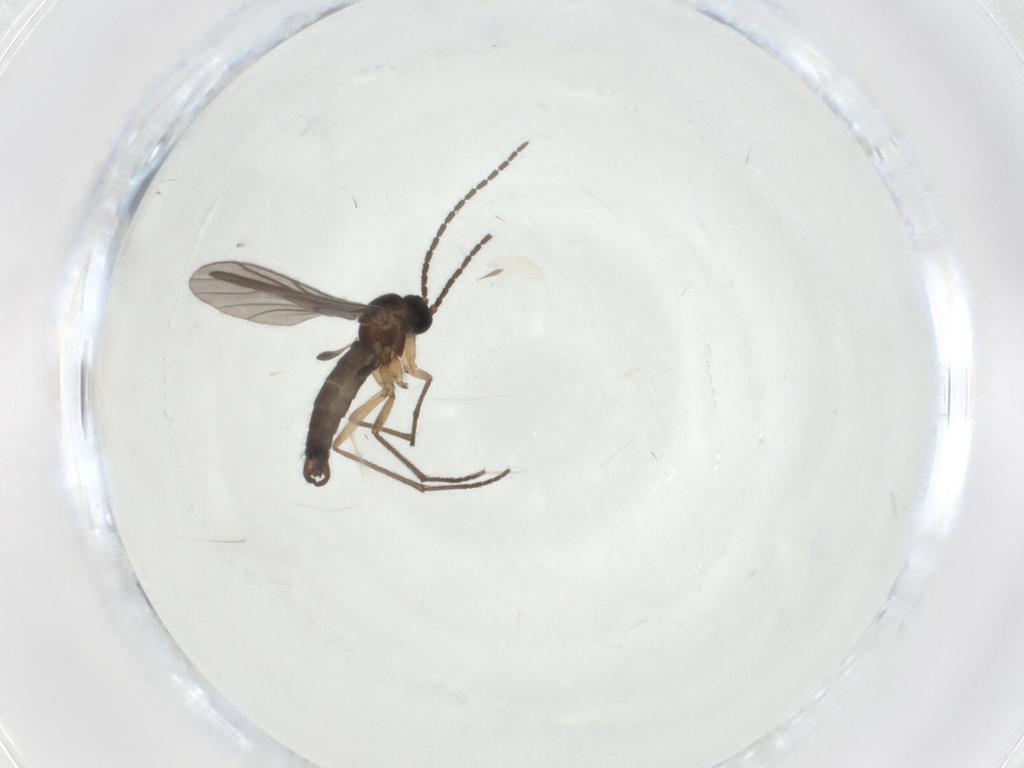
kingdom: Animalia
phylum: Arthropoda
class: Insecta
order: Diptera
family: Sciaridae
